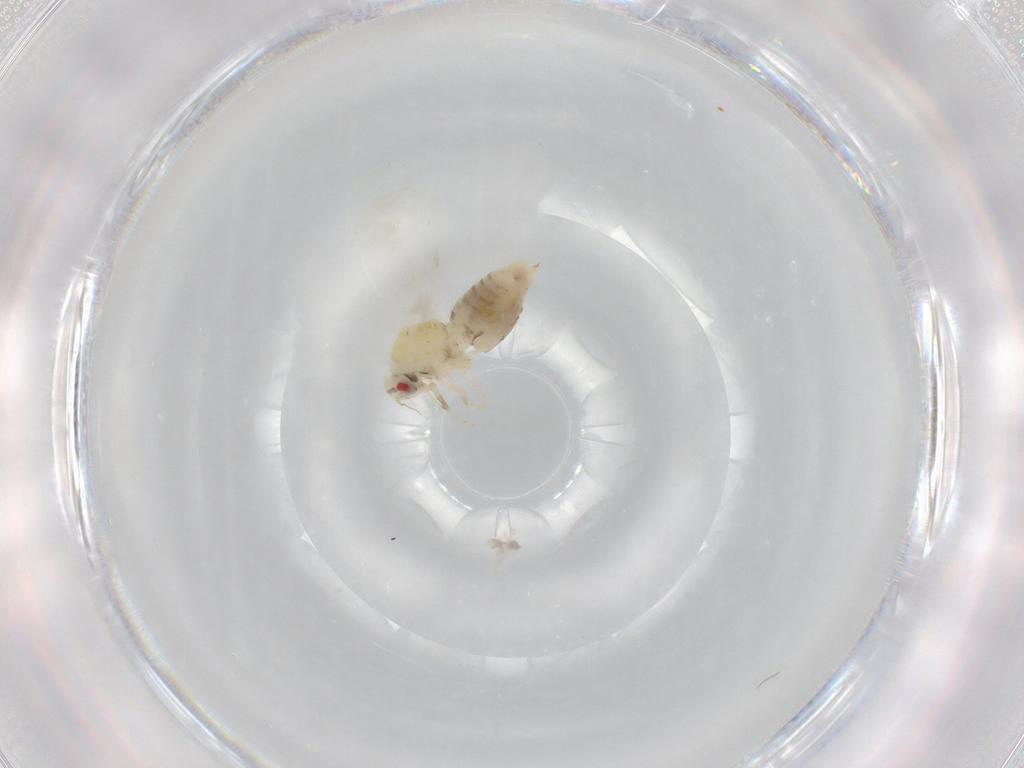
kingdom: Animalia
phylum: Arthropoda
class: Insecta
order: Hemiptera
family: Aleyrodidae
